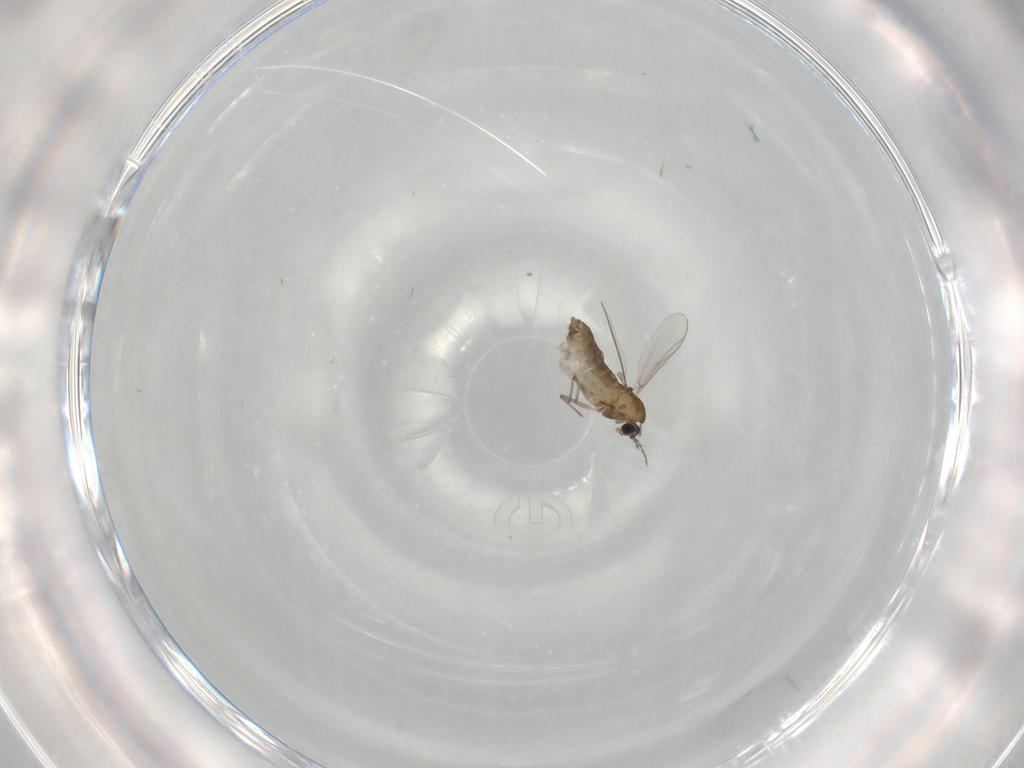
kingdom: Animalia
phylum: Arthropoda
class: Insecta
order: Diptera
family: Chironomidae
